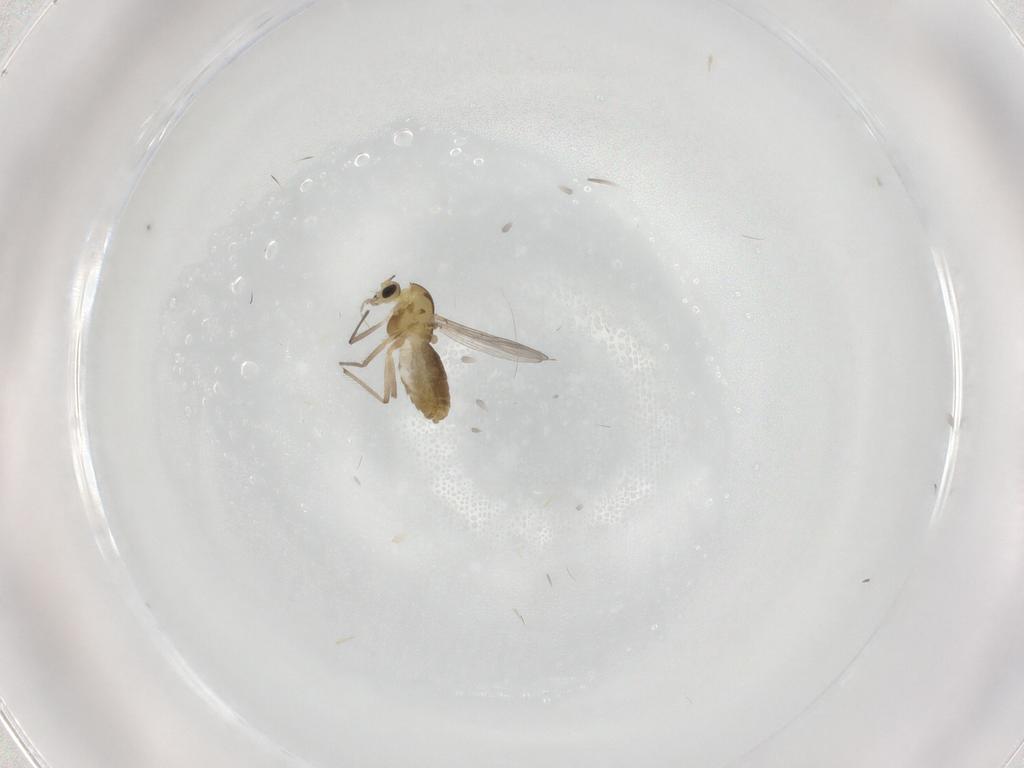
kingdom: Animalia
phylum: Arthropoda
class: Insecta
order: Diptera
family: Chironomidae
